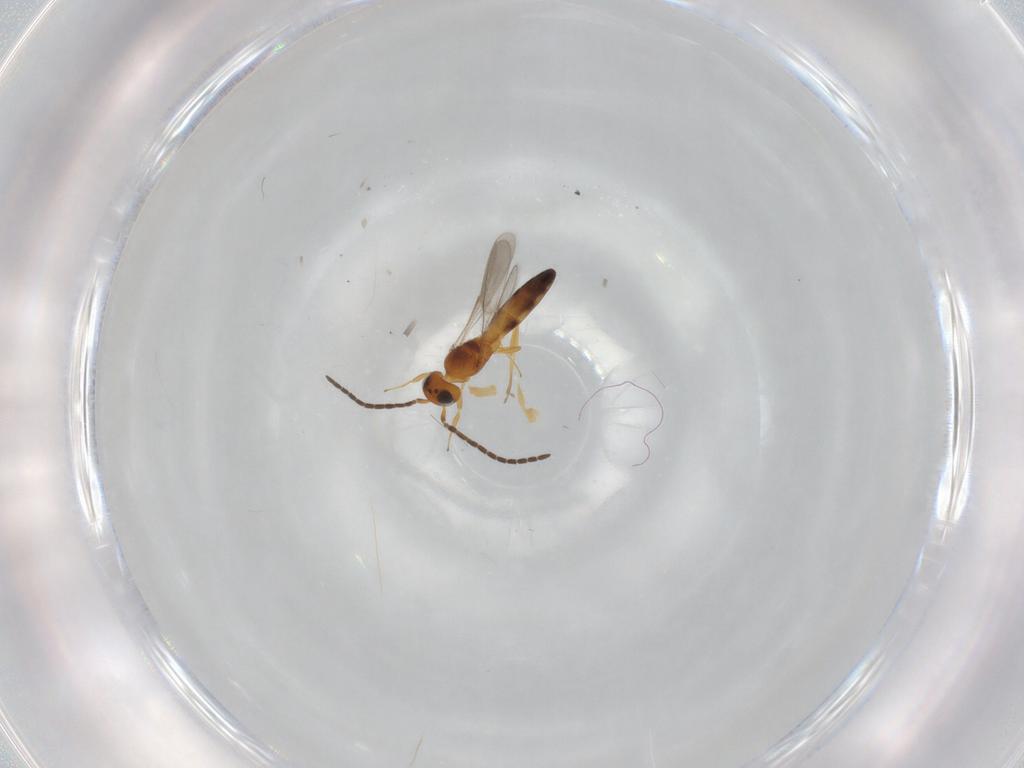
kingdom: Animalia
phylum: Arthropoda
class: Insecta
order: Hymenoptera
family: Scelionidae
